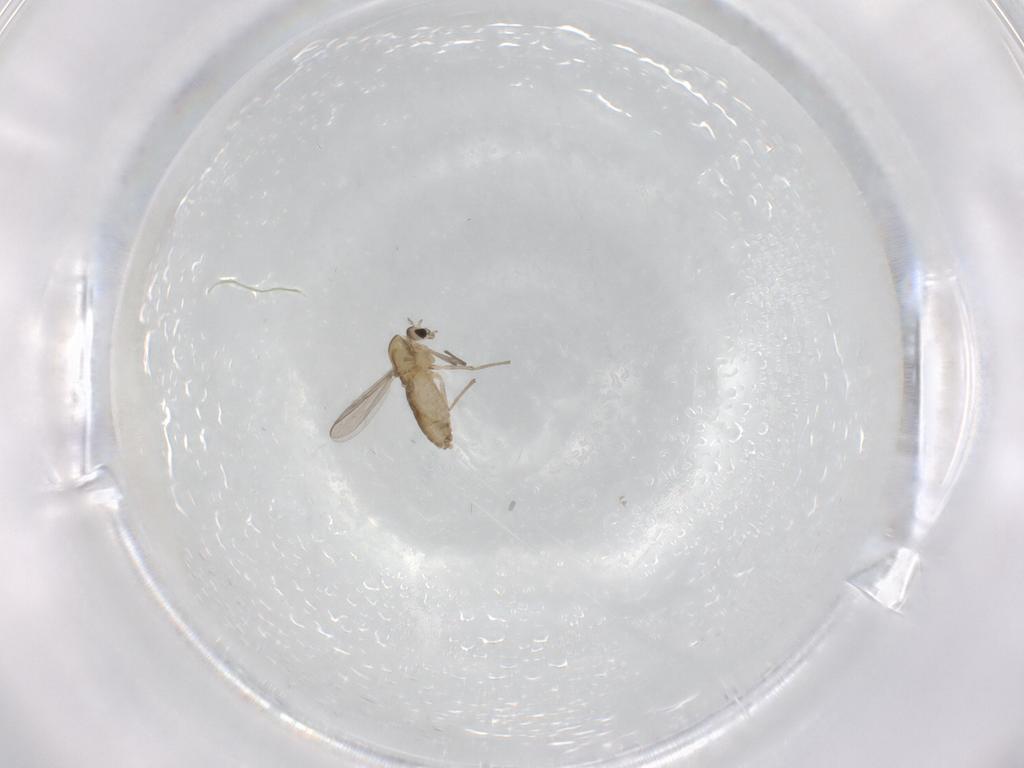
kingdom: Animalia
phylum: Arthropoda
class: Insecta
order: Diptera
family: Chironomidae
